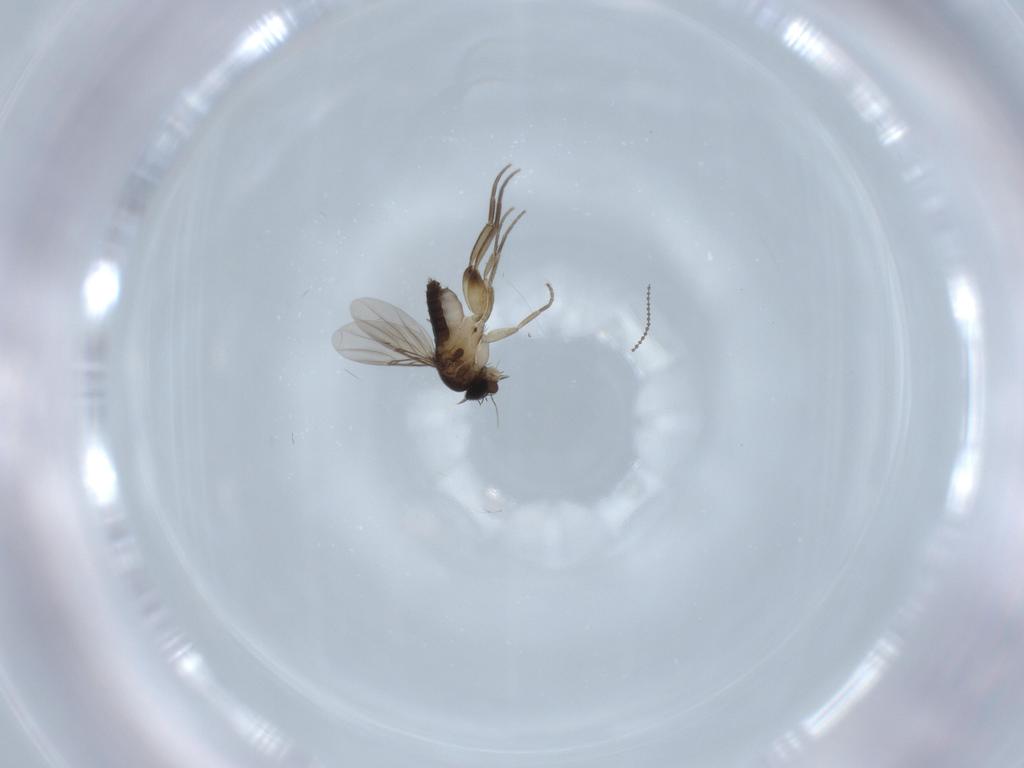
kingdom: Animalia
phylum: Arthropoda
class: Insecta
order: Diptera
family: Phoridae
